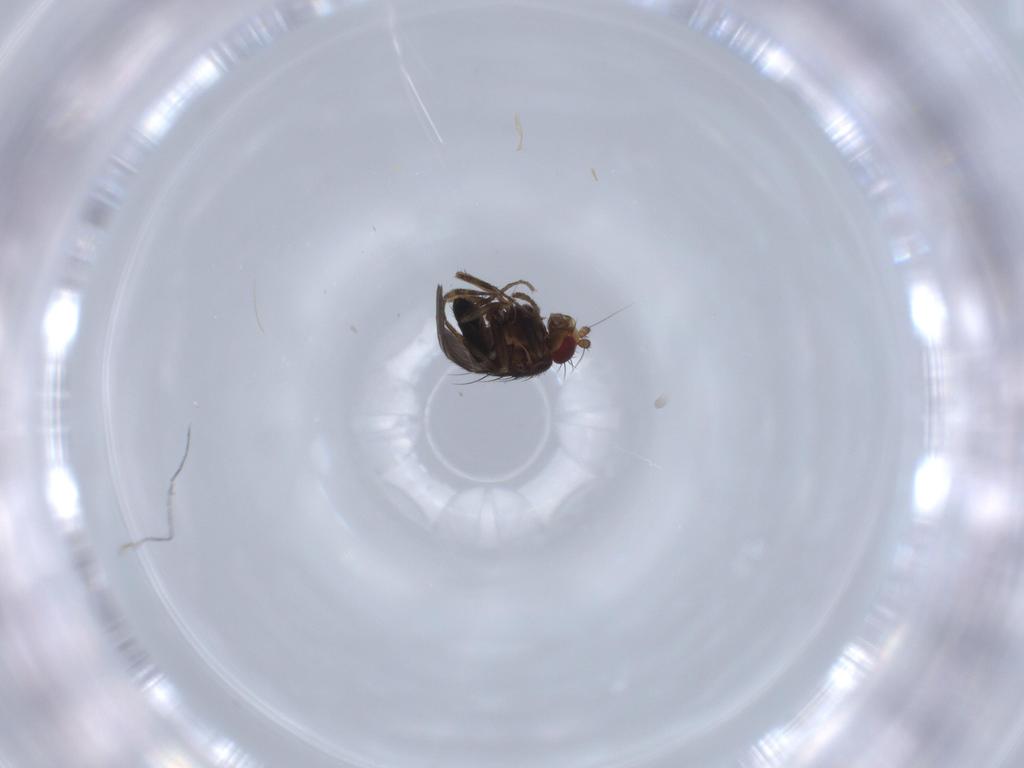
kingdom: Animalia
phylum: Arthropoda
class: Insecta
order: Diptera
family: Sphaeroceridae
